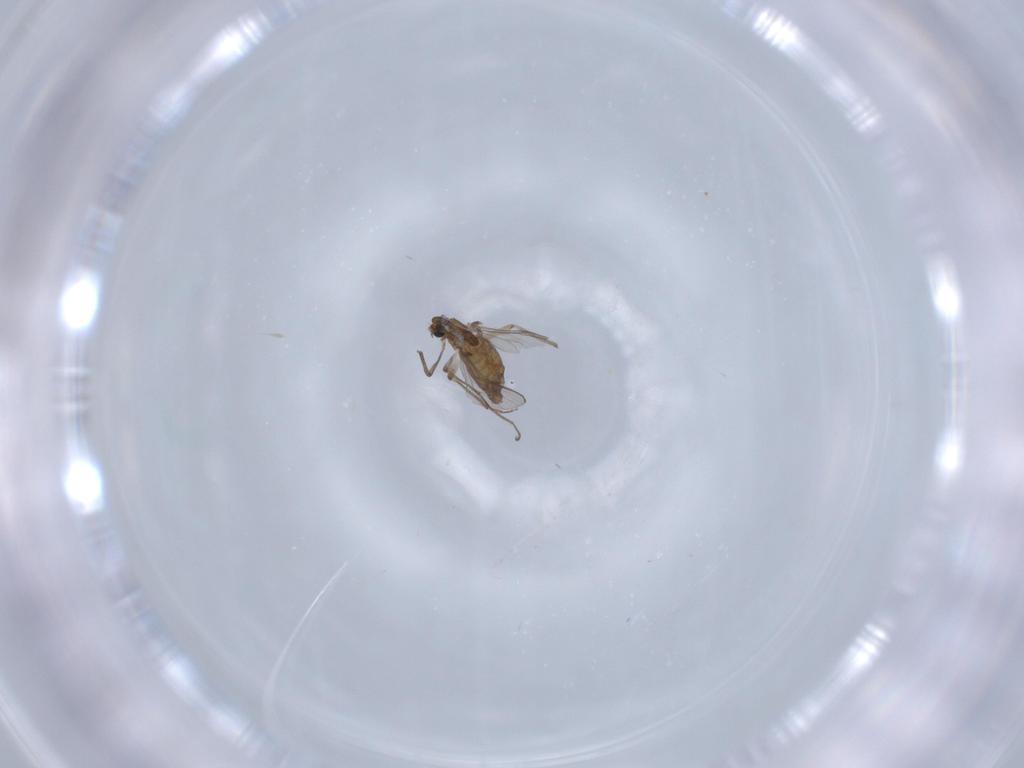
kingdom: Animalia
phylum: Arthropoda
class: Insecta
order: Diptera
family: Chironomidae
